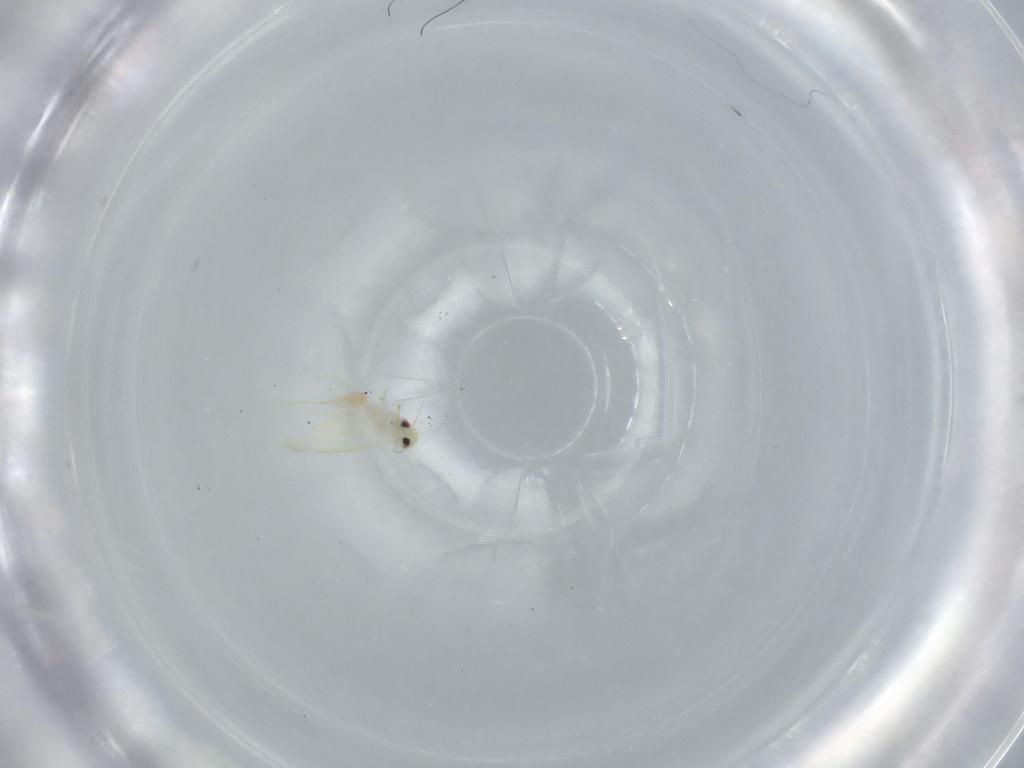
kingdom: Animalia
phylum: Arthropoda
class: Insecta
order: Hemiptera
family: Aleyrodidae
